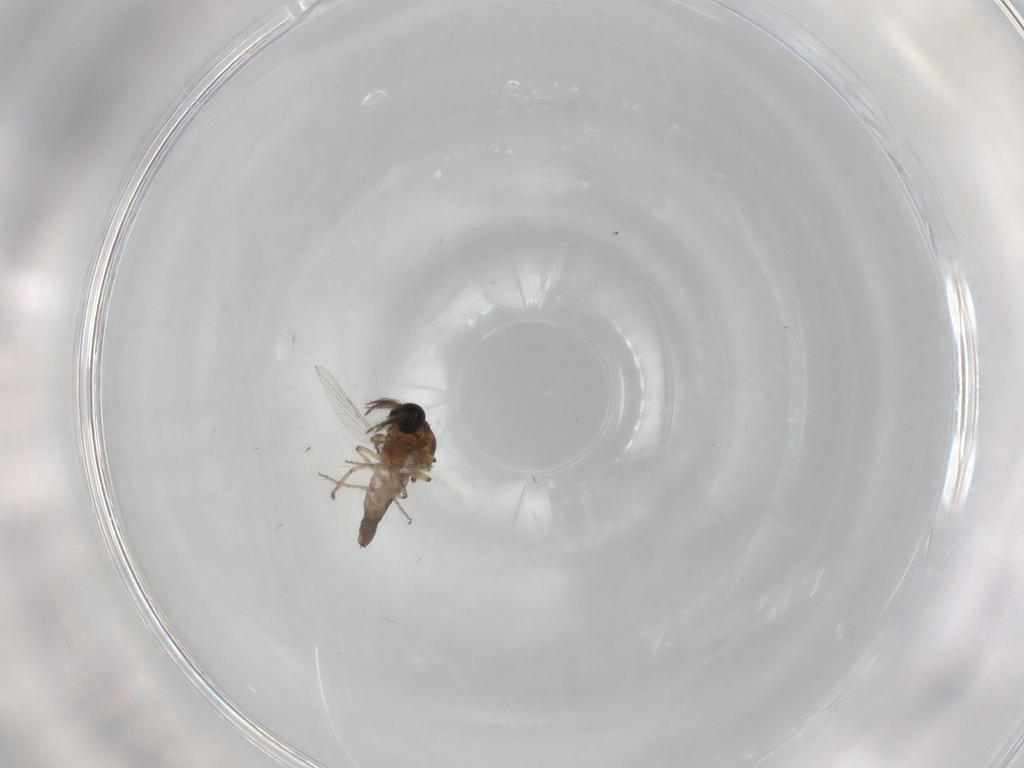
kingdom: Animalia
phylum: Arthropoda
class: Insecta
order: Diptera
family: Ceratopogonidae
